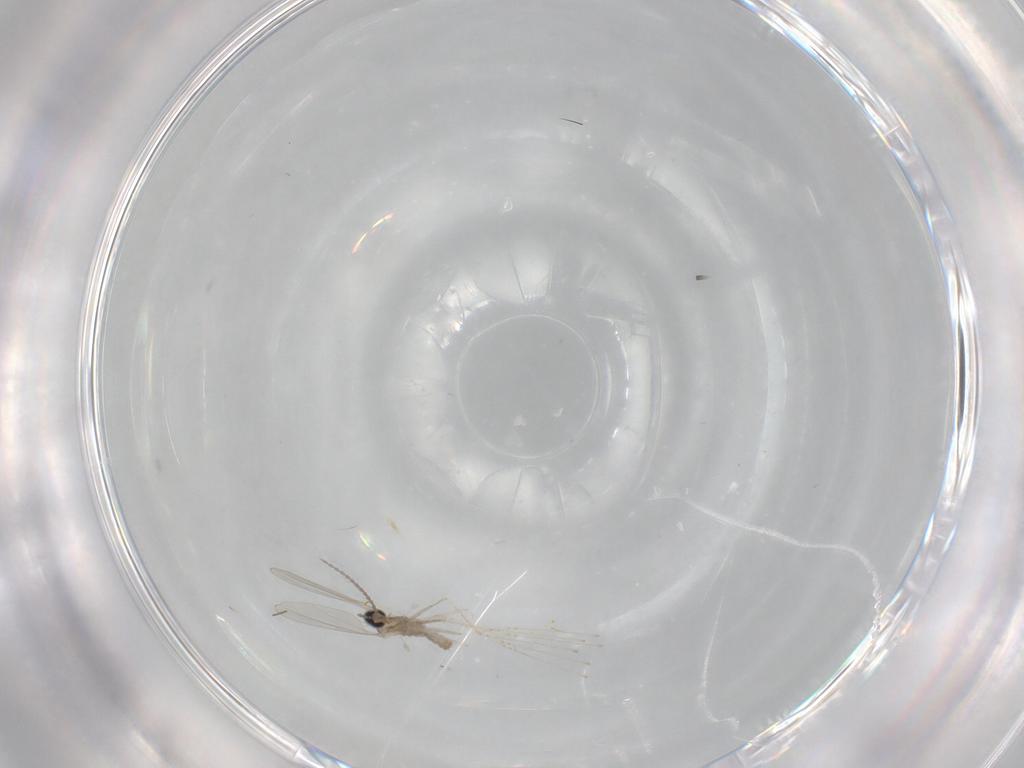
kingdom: Animalia
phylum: Arthropoda
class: Insecta
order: Diptera
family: Cecidomyiidae
